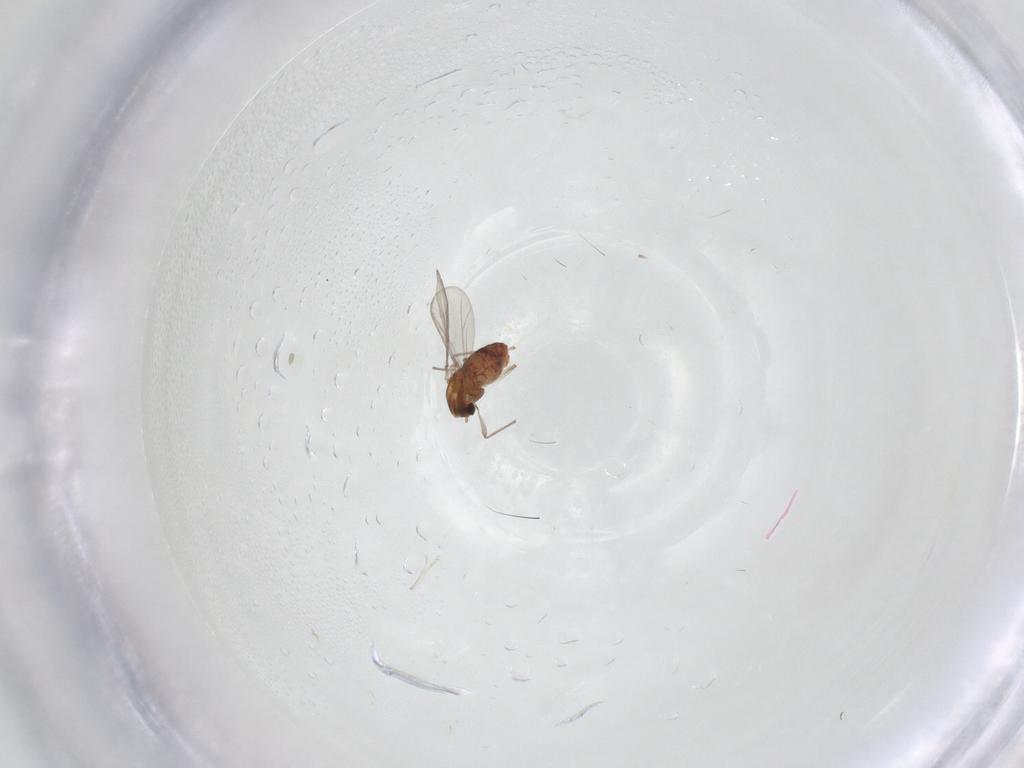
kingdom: Animalia
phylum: Arthropoda
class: Insecta
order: Diptera
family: Chironomidae
